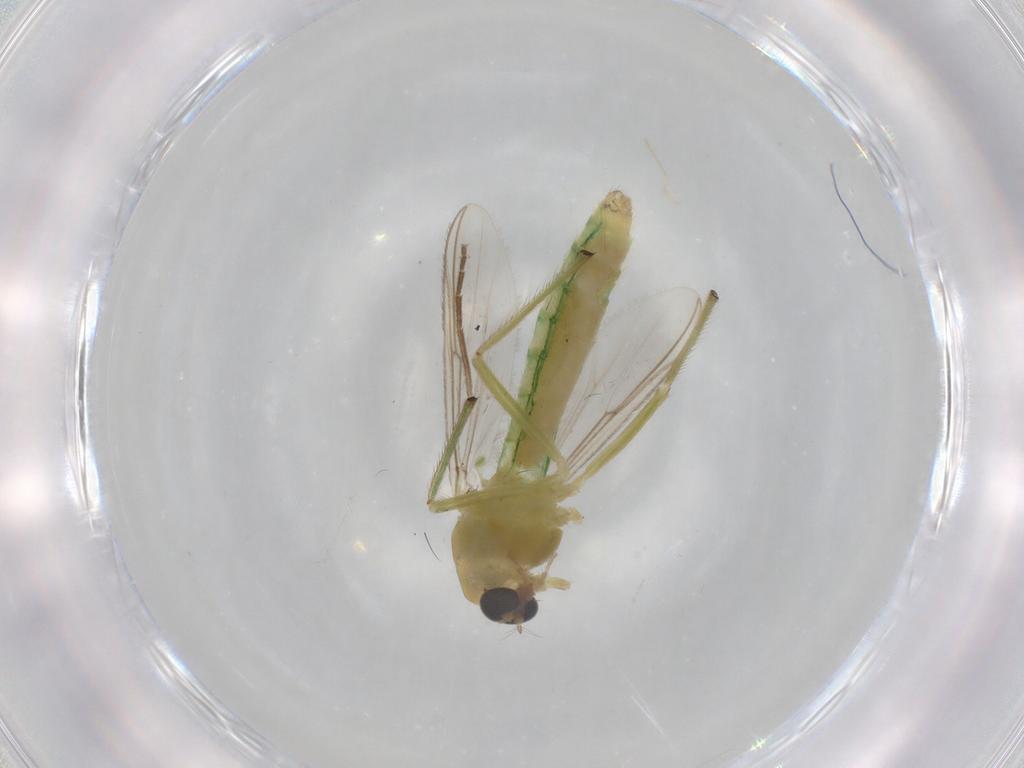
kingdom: Animalia
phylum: Arthropoda
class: Insecta
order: Diptera
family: Chironomidae
